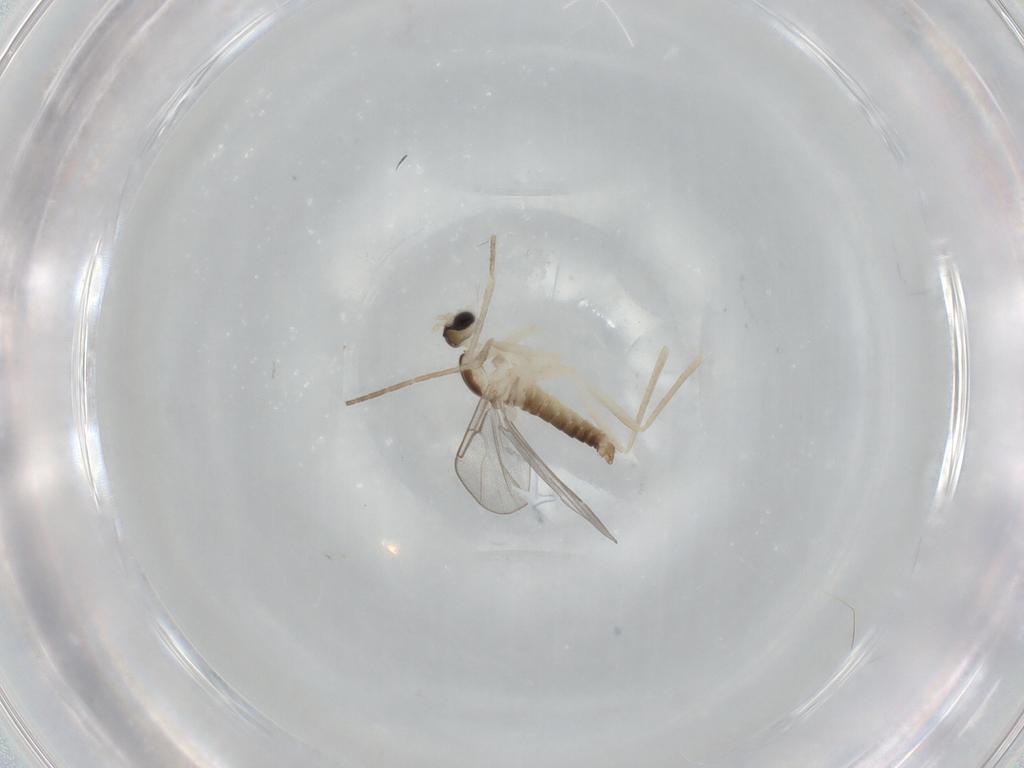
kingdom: Animalia
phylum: Arthropoda
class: Insecta
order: Diptera
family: Cecidomyiidae
